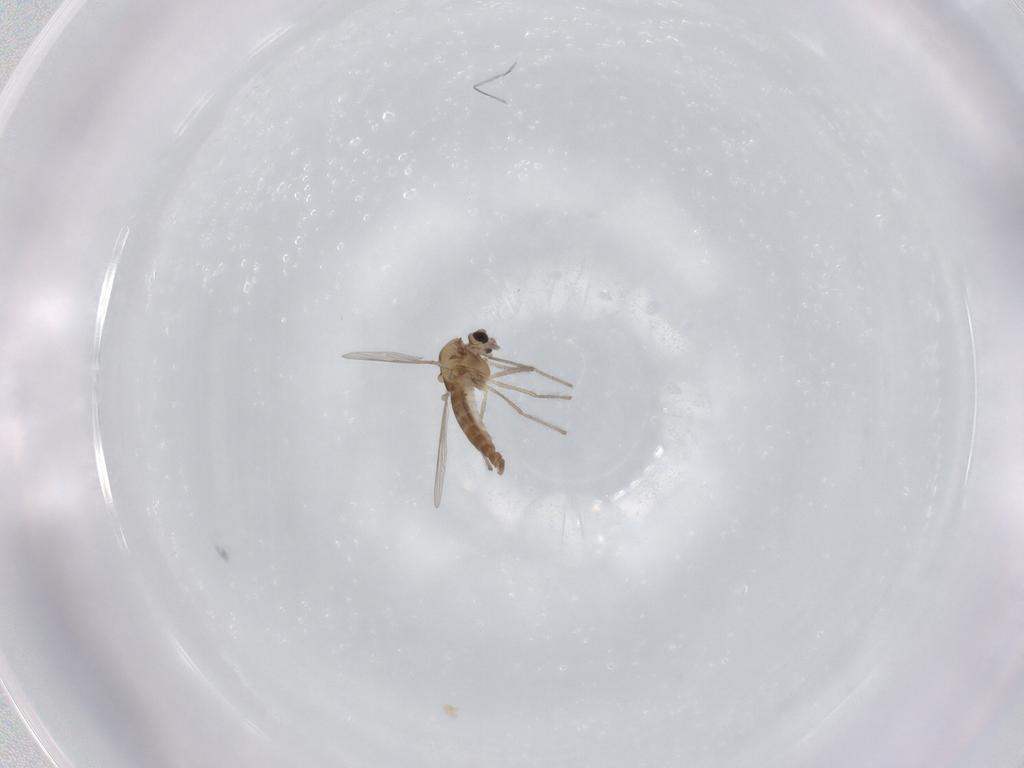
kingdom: Animalia
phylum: Arthropoda
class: Insecta
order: Diptera
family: Chironomidae
